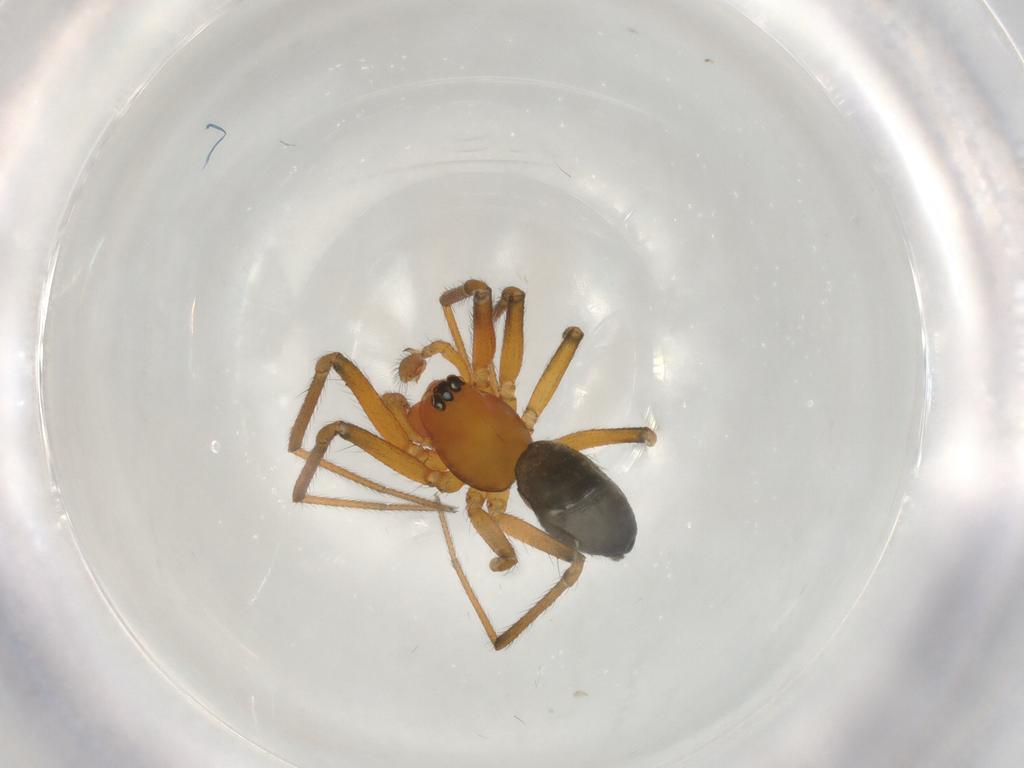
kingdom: Animalia
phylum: Arthropoda
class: Arachnida
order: Araneae
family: Linyphiidae
